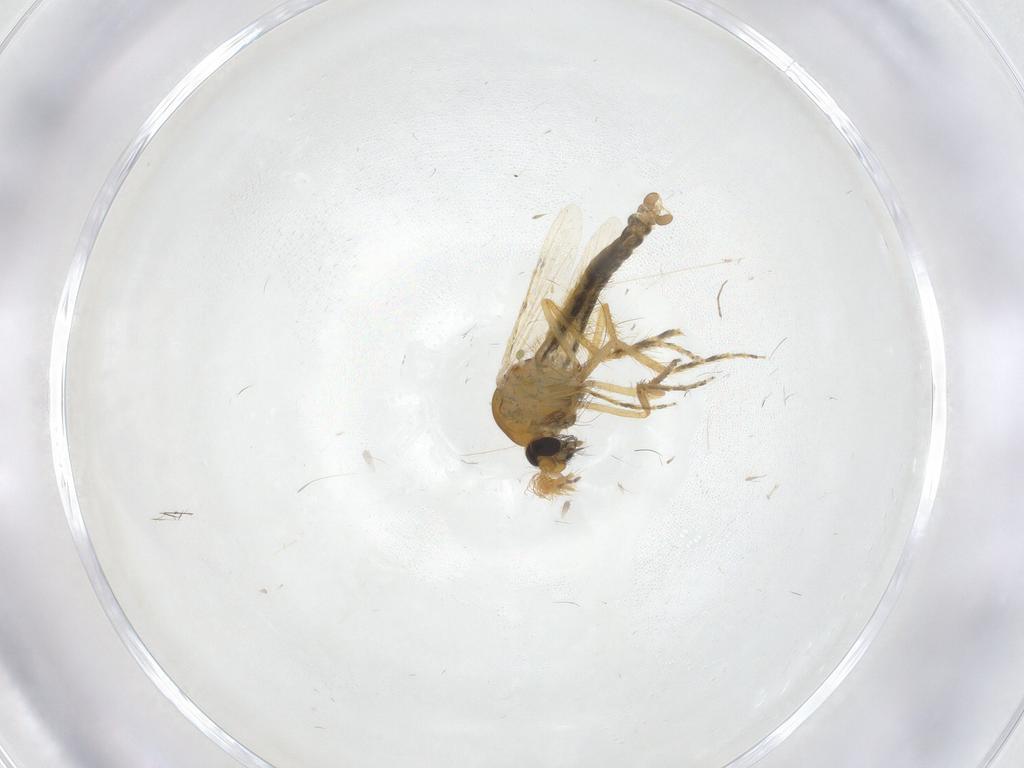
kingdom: Animalia
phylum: Arthropoda
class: Insecta
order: Diptera
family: Ceratopogonidae
